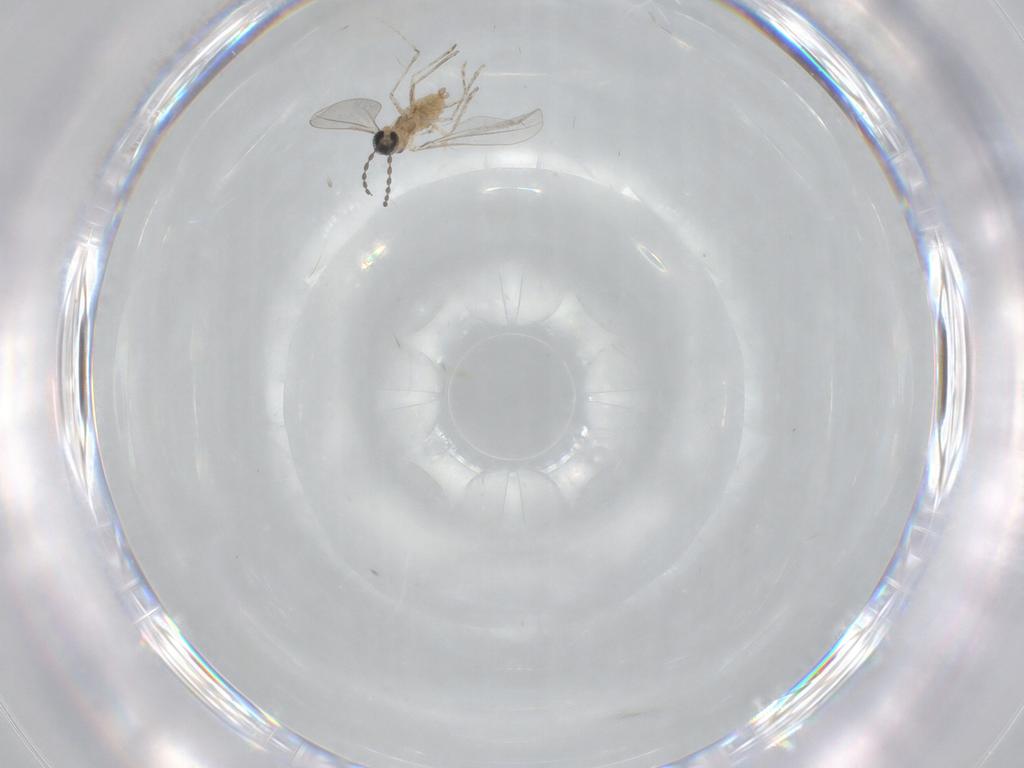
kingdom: Animalia
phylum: Arthropoda
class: Insecta
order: Diptera
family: Cecidomyiidae
